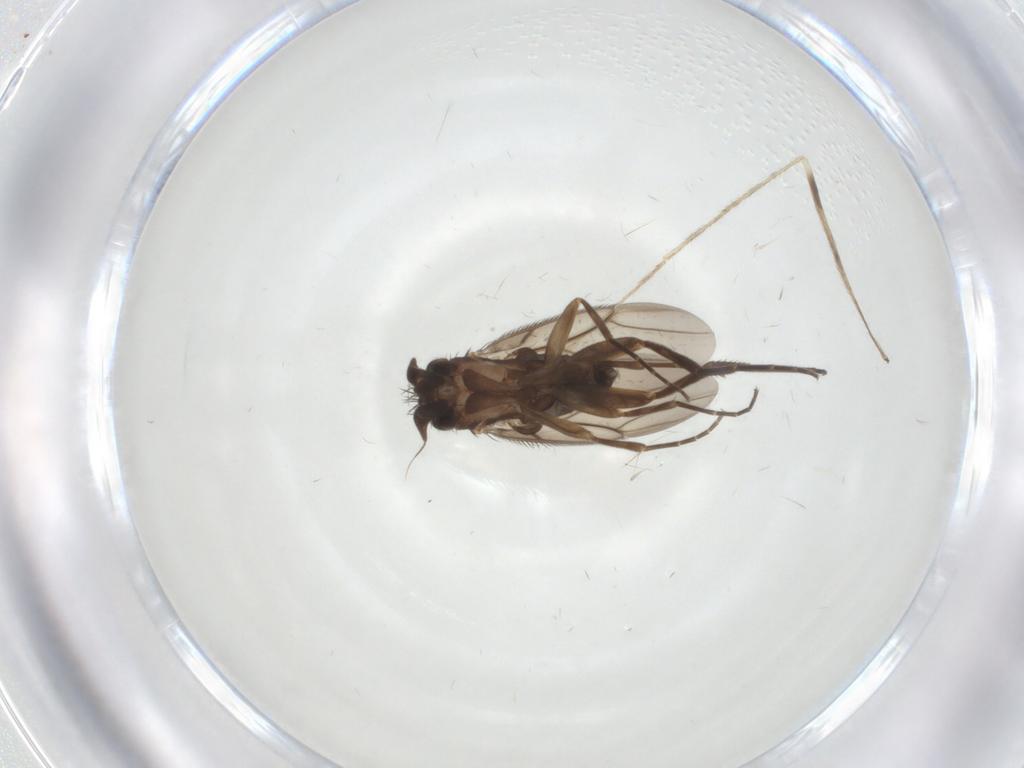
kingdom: Animalia
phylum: Arthropoda
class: Insecta
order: Diptera
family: Phoridae
